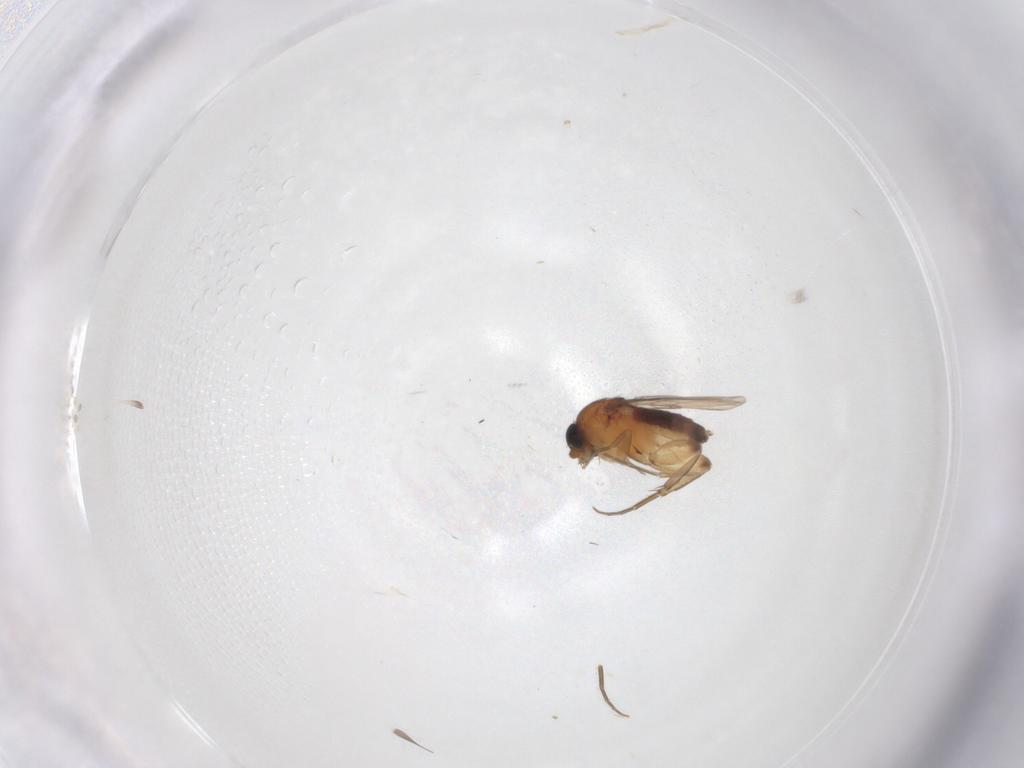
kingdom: Animalia
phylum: Arthropoda
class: Insecta
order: Diptera
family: Phoridae
